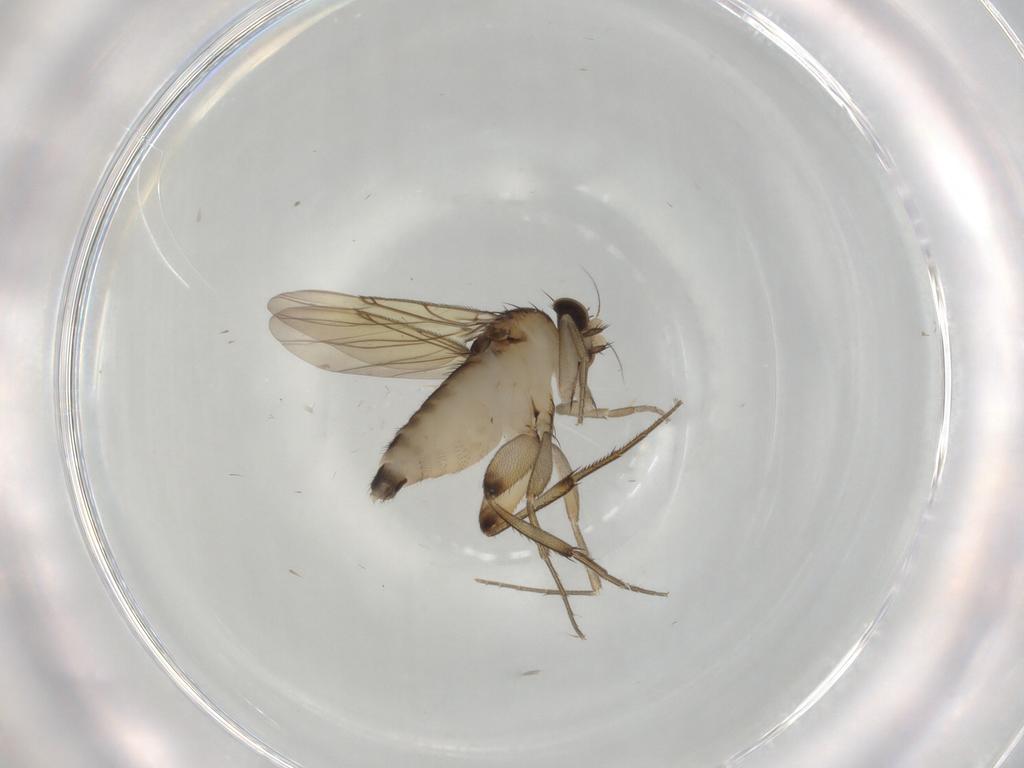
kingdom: Animalia
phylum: Arthropoda
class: Insecta
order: Diptera
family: Phoridae
